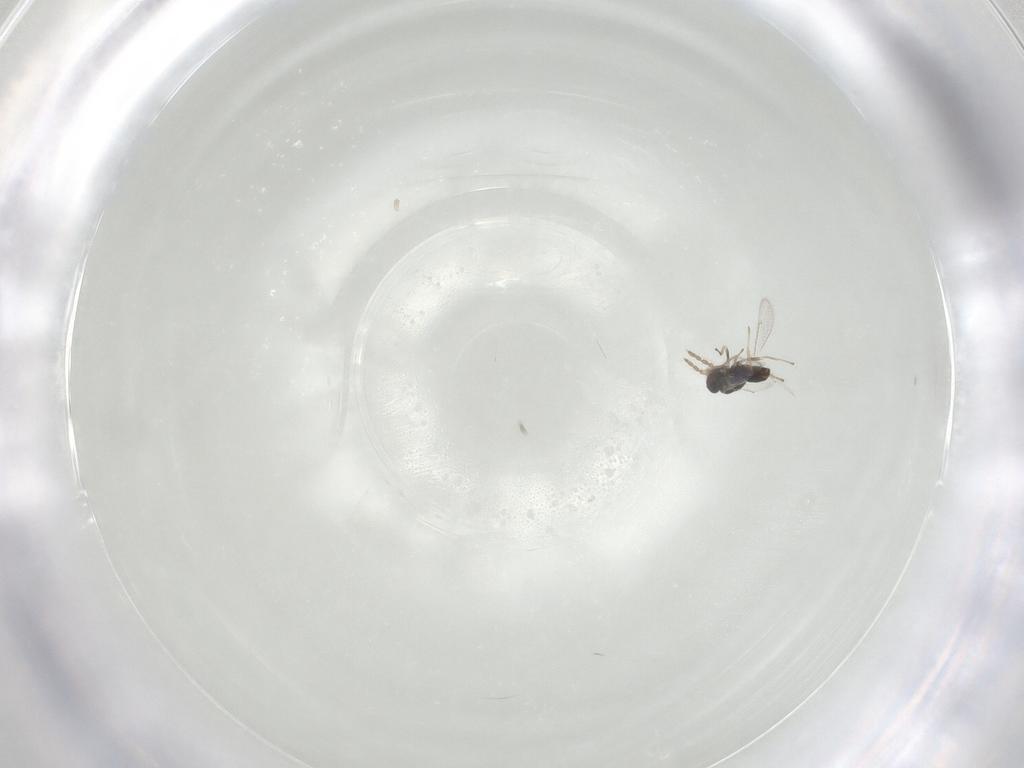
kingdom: Animalia
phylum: Arthropoda
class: Insecta
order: Hymenoptera
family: Eulophidae
